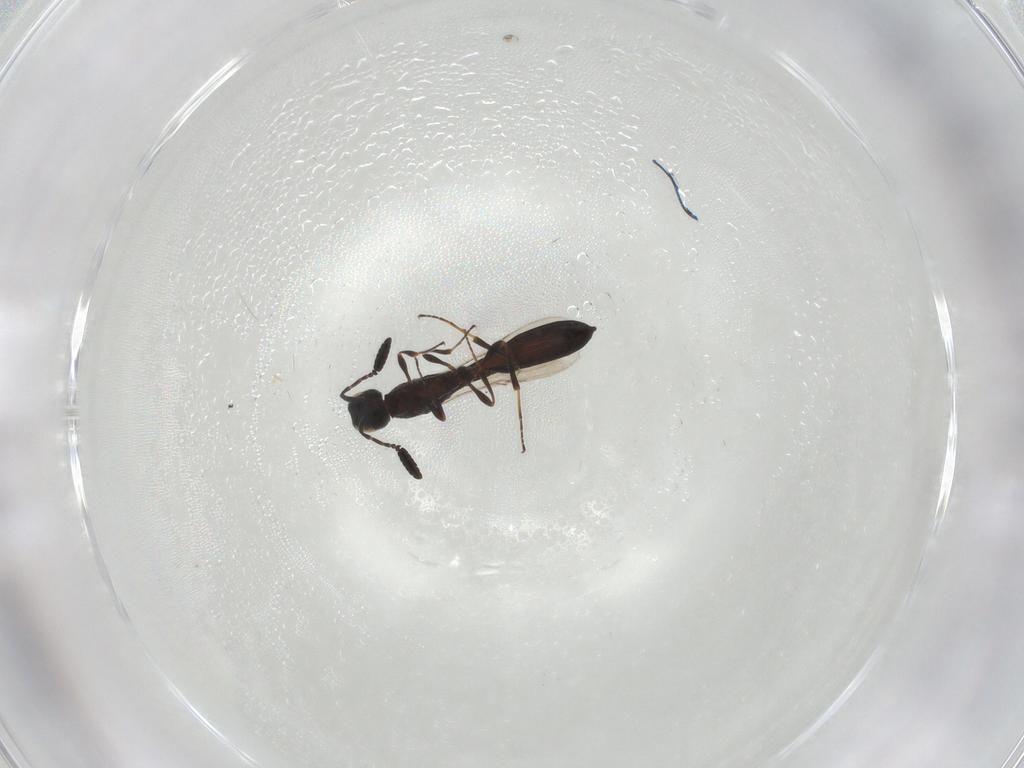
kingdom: Animalia
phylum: Arthropoda
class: Insecta
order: Hymenoptera
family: Scelionidae
